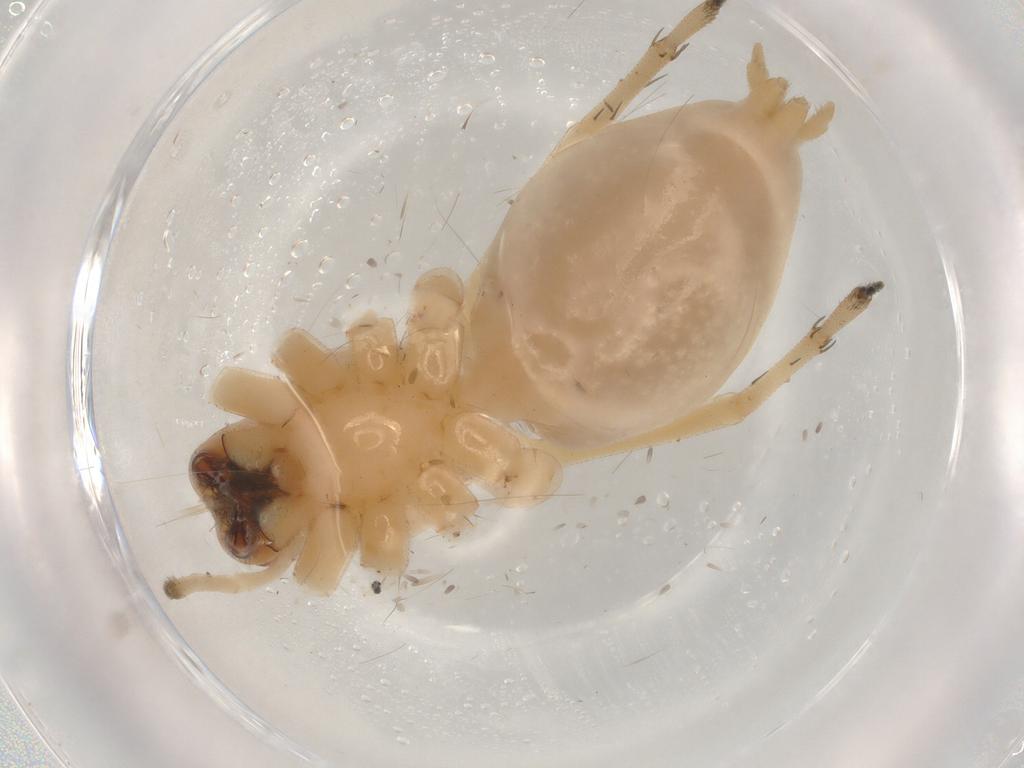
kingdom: Animalia
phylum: Arthropoda
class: Arachnida
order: Araneae
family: Cheiracanthiidae
